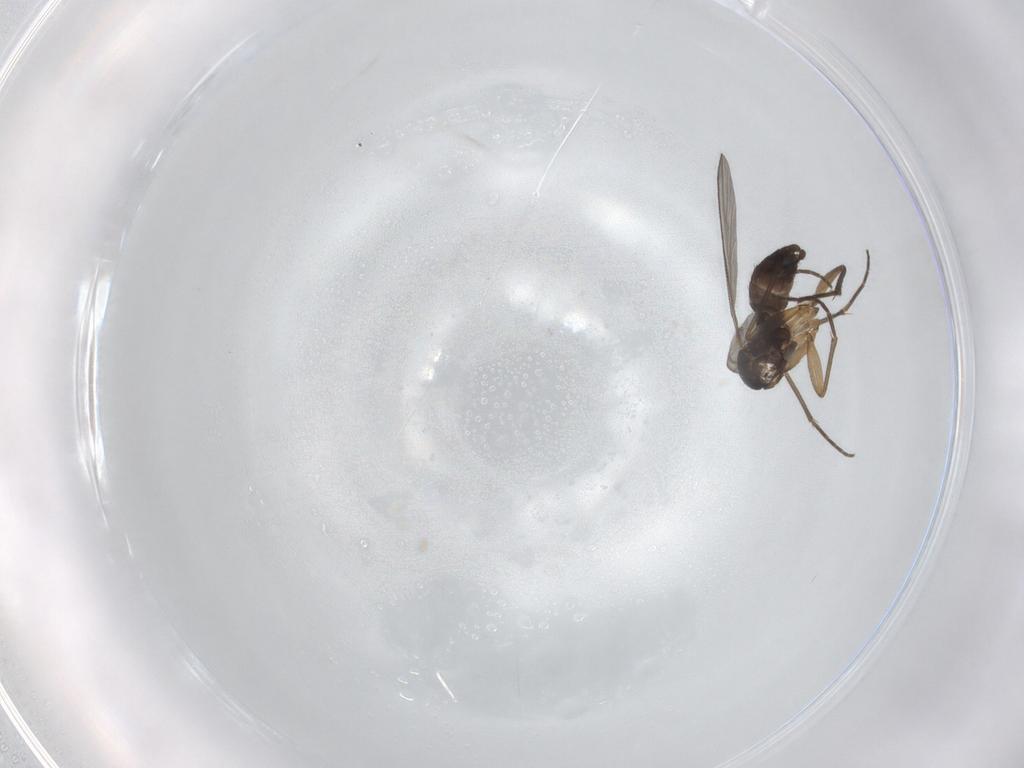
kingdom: Animalia
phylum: Arthropoda
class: Insecta
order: Diptera
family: Sciaridae
